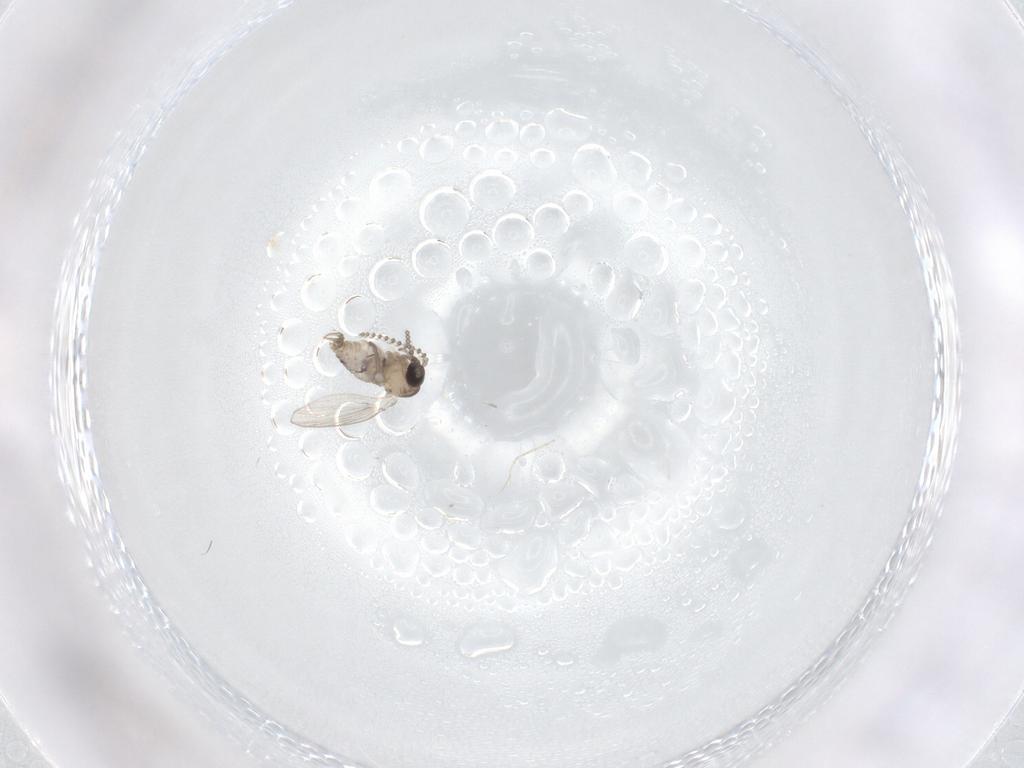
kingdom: Animalia
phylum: Arthropoda
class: Insecta
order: Diptera
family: Psychodidae
